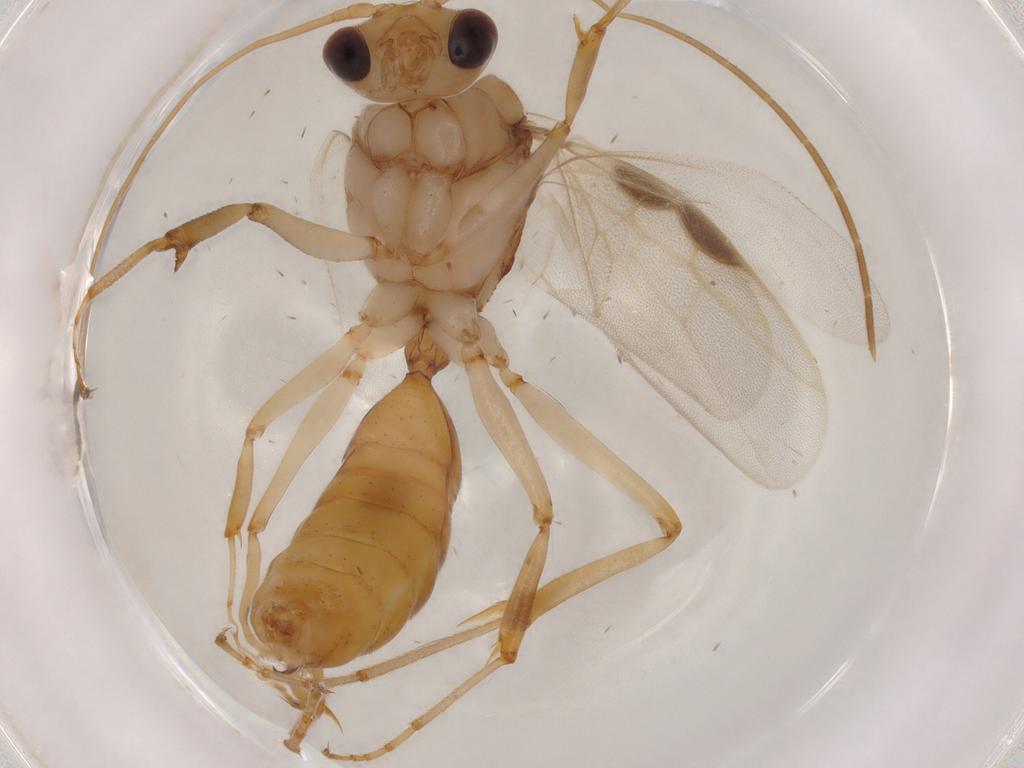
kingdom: Animalia
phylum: Arthropoda
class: Insecta
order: Hymenoptera
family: Formicidae
